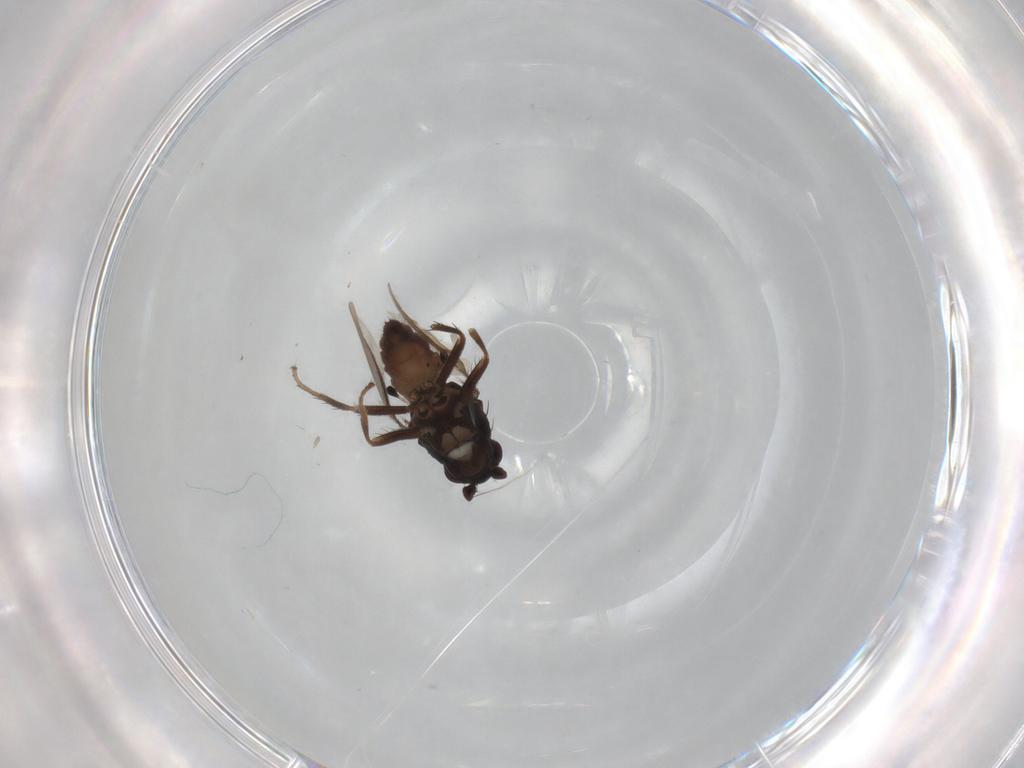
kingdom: Animalia
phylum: Arthropoda
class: Insecta
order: Diptera
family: Sphaeroceridae
